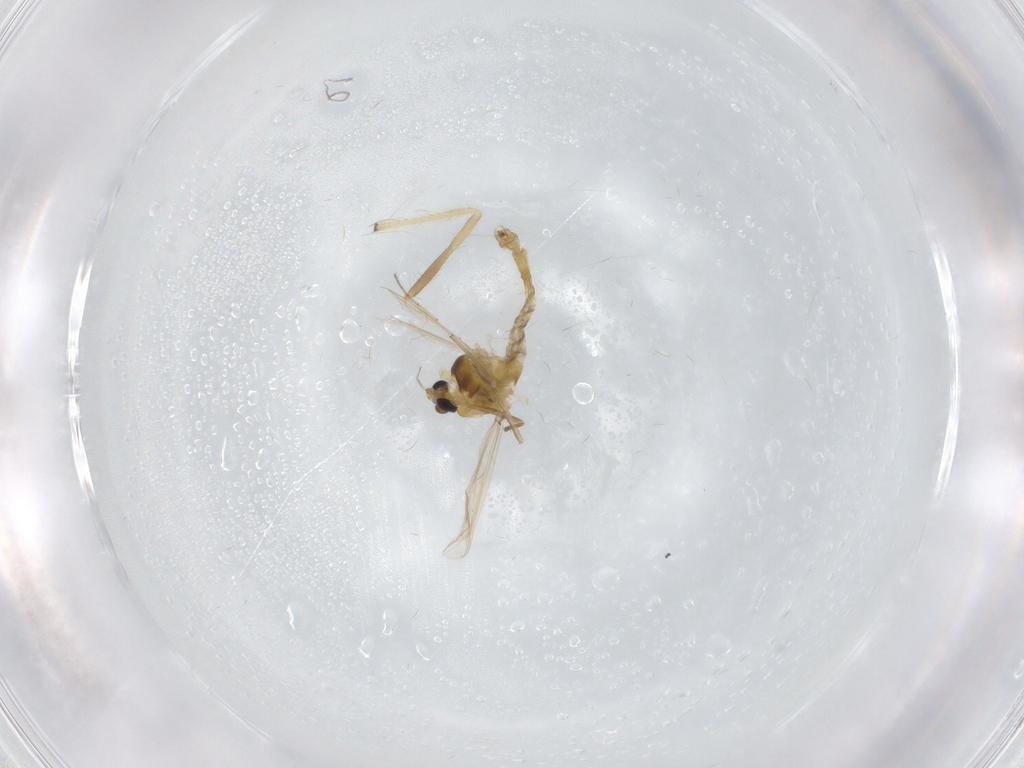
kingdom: Animalia
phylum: Arthropoda
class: Insecta
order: Diptera
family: Chironomidae
